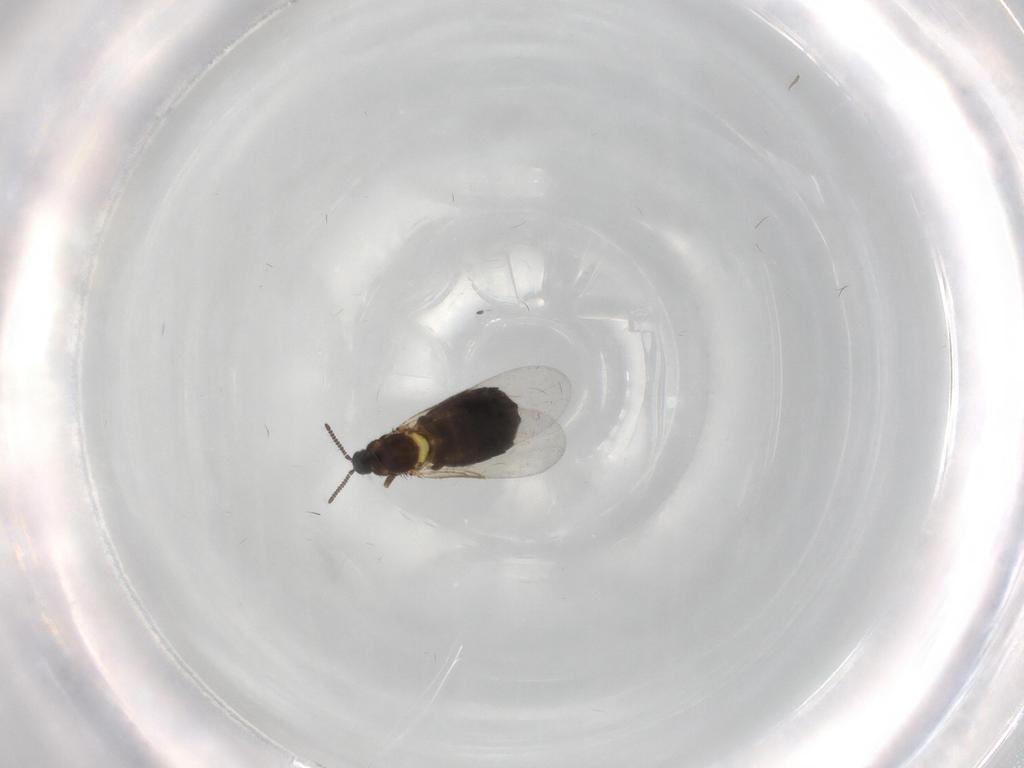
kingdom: Animalia
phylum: Arthropoda
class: Insecta
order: Diptera
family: Scatopsidae
